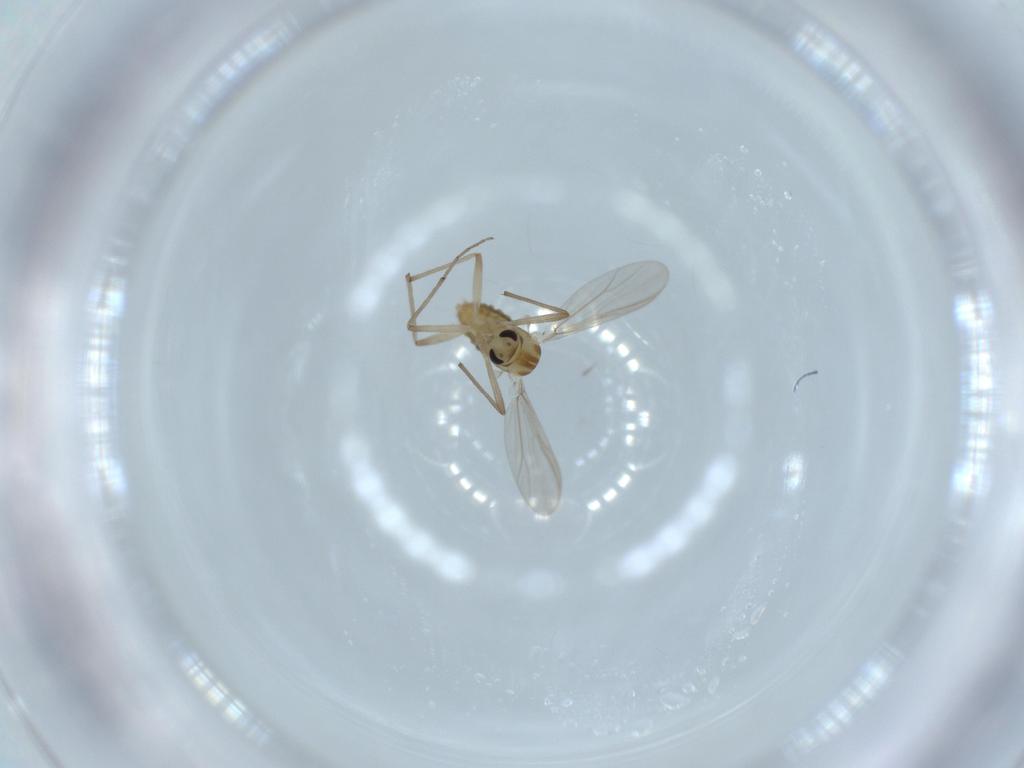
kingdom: Animalia
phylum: Arthropoda
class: Insecta
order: Diptera
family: Chironomidae
